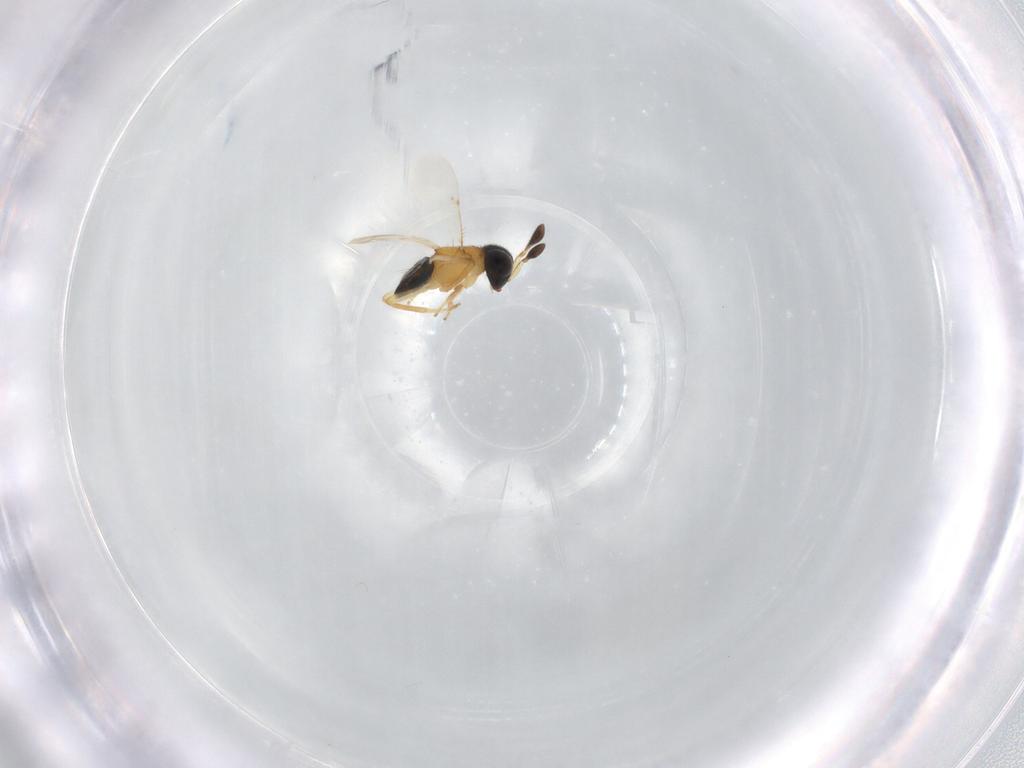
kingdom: Animalia
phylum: Arthropoda
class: Insecta
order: Hymenoptera
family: Encyrtidae
